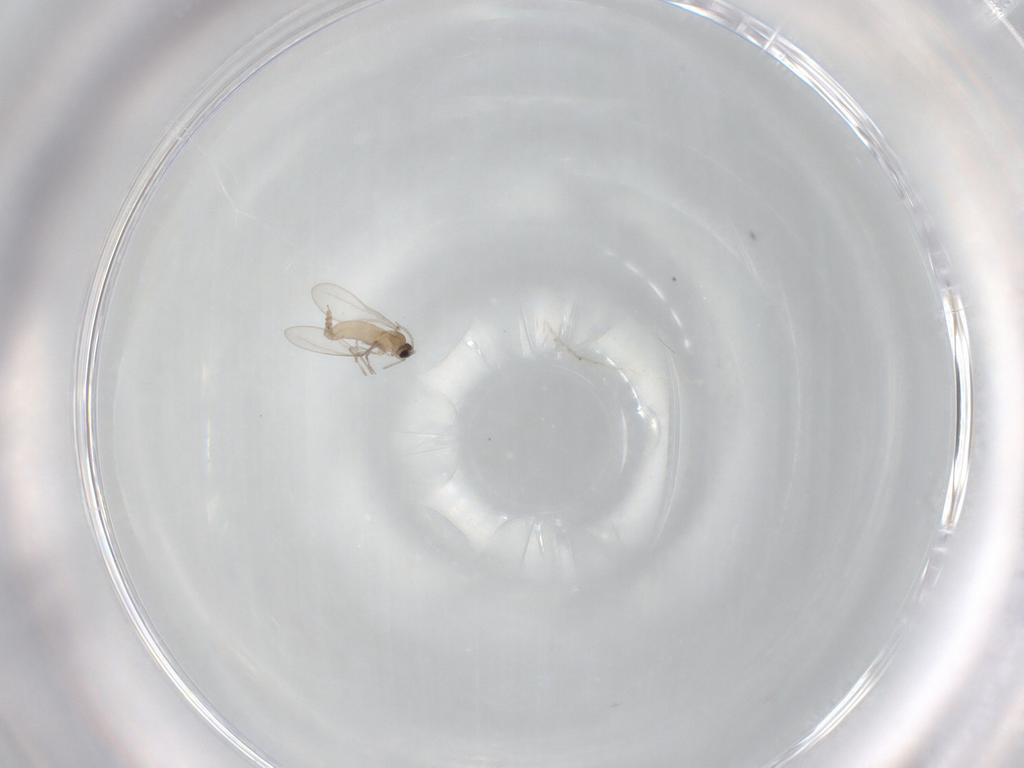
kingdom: Animalia
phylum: Arthropoda
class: Insecta
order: Diptera
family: Cecidomyiidae
